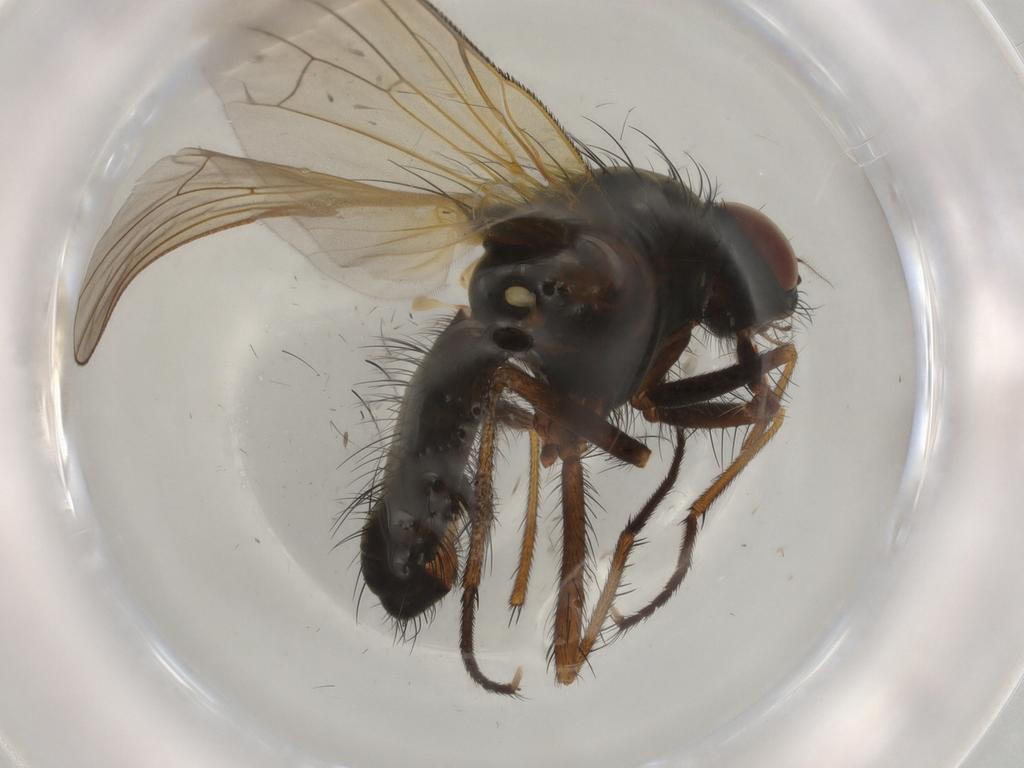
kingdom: Animalia
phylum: Arthropoda
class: Insecta
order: Diptera
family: Anthomyiidae
